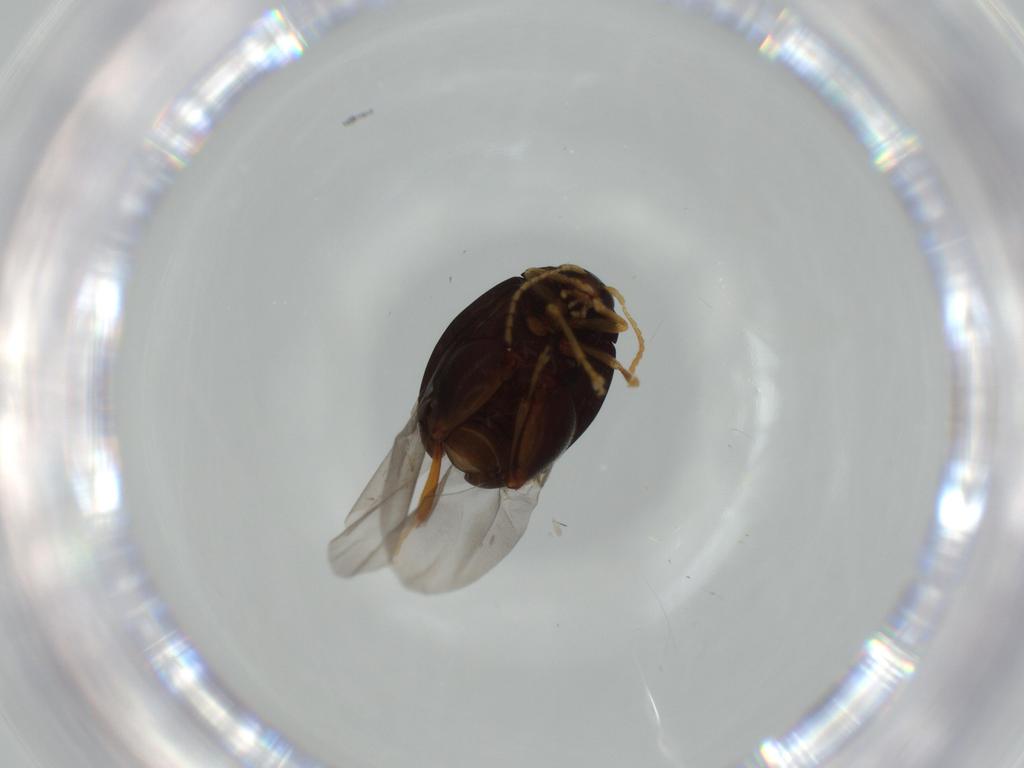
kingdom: Animalia
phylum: Arthropoda
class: Insecta
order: Coleoptera
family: Chrysomelidae
